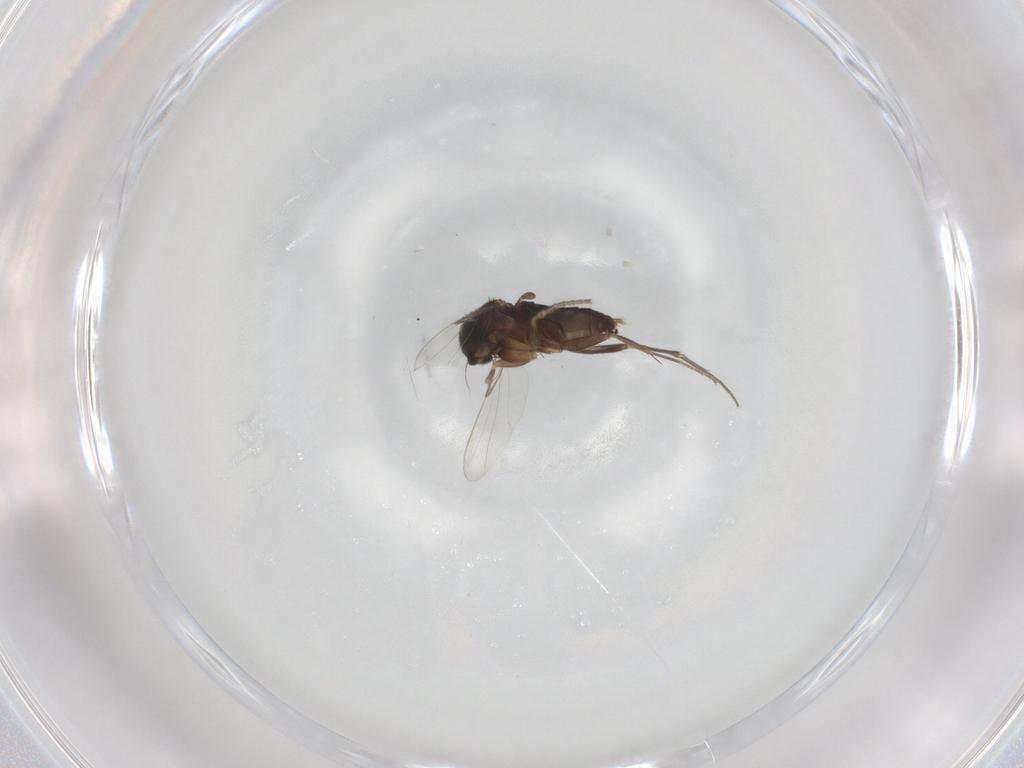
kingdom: Animalia
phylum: Arthropoda
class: Insecta
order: Diptera
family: Phoridae
